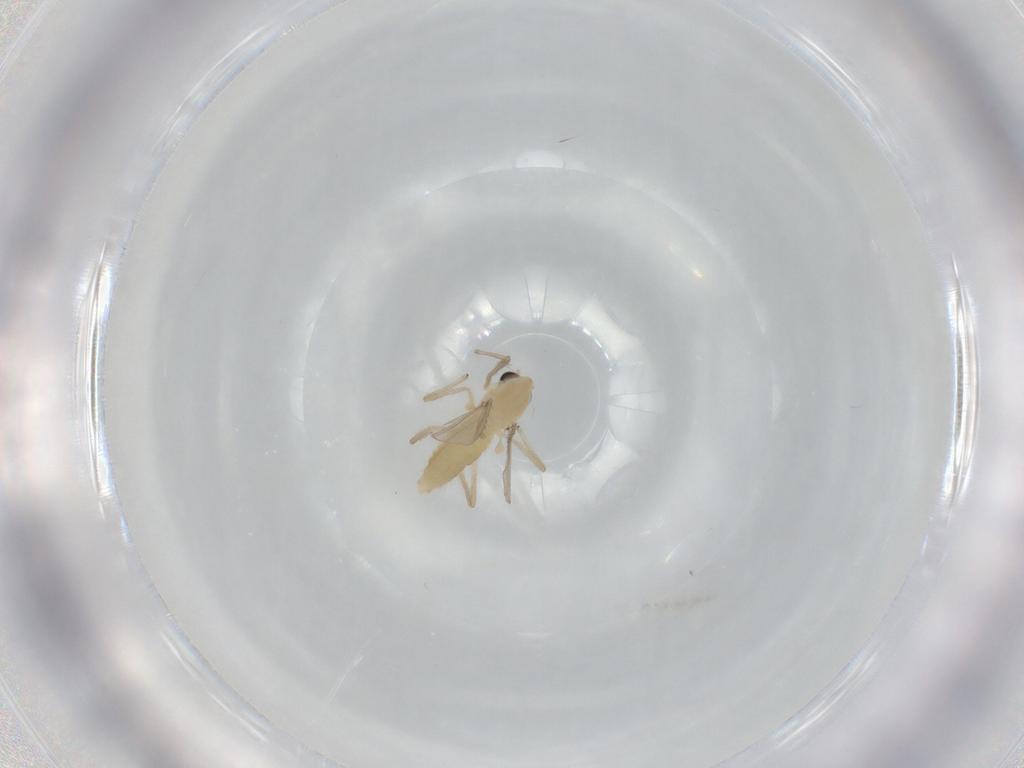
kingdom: Animalia
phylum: Arthropoda
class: Insecta
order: Diptera
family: Chironomidae
